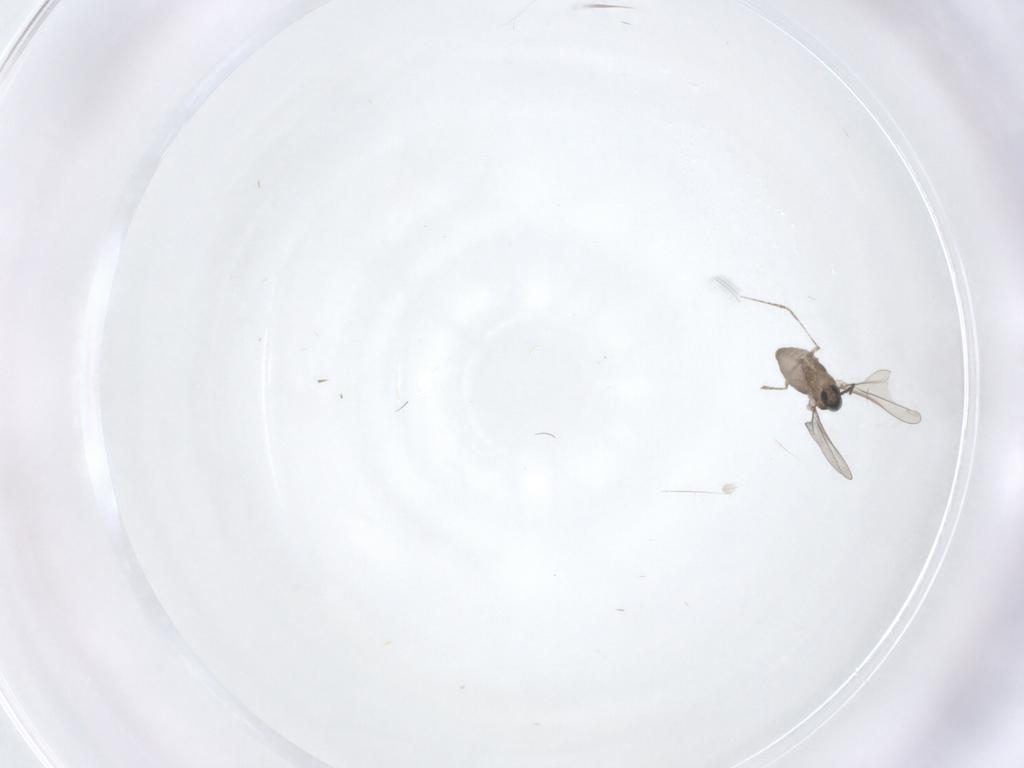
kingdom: Animalia
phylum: Arthropoda
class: Insecta
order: Diptera
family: Cecidomyiidae
